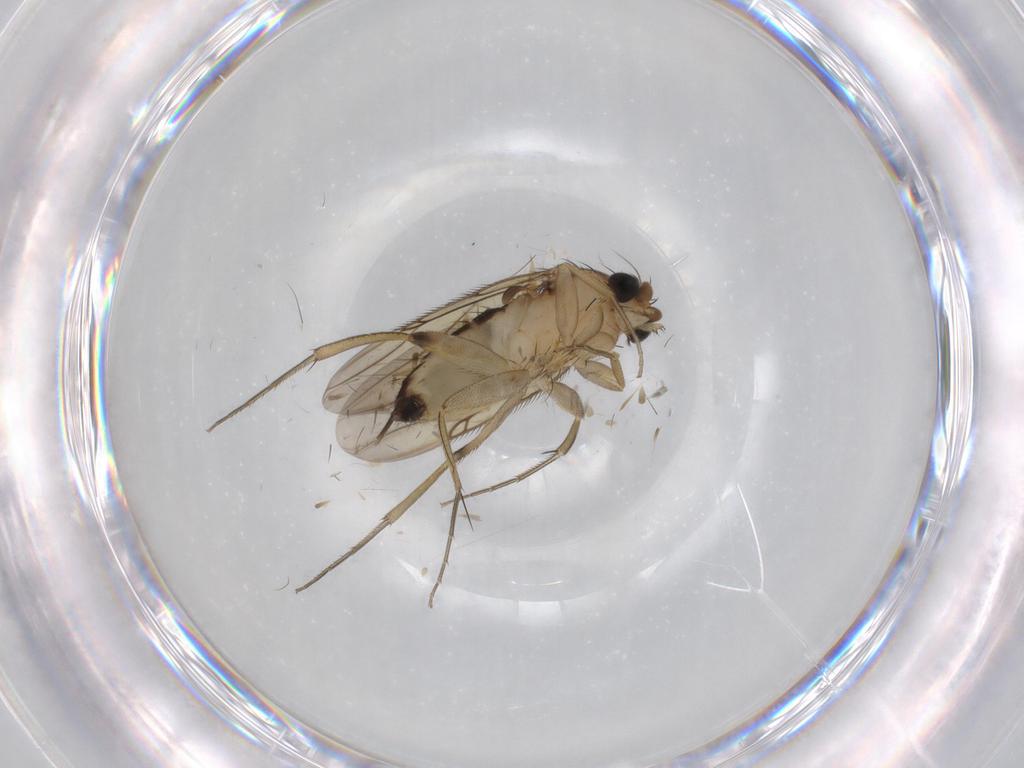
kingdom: Animalia
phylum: Arthropoda
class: Insecta
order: Diptera
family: Phoridae
